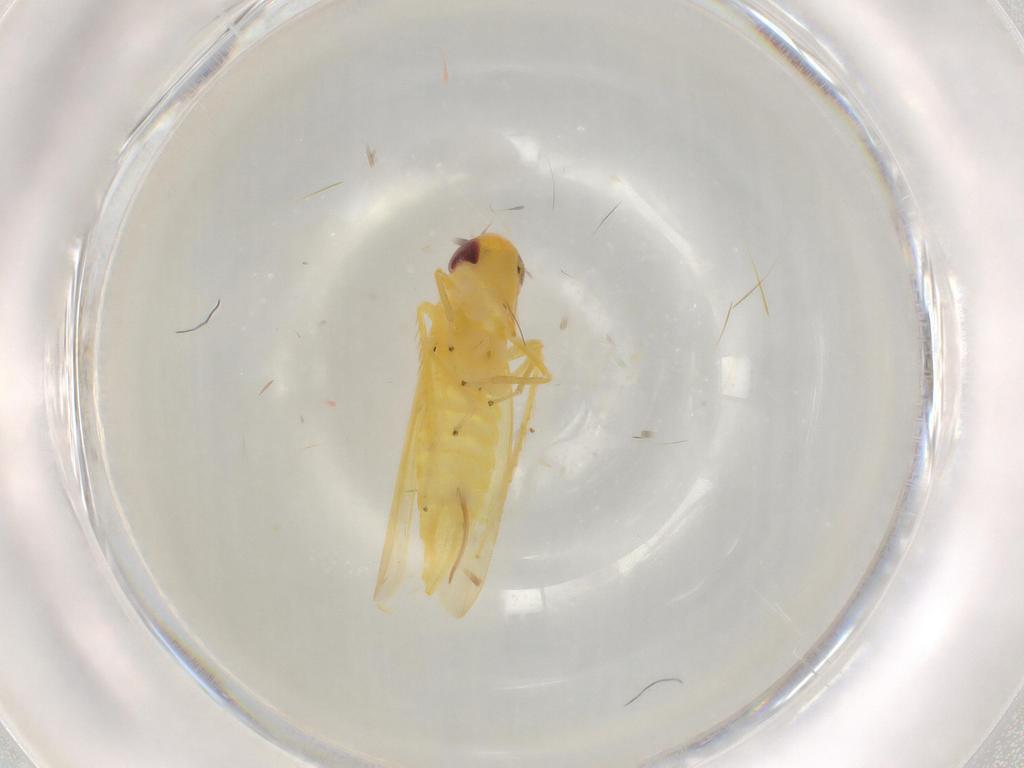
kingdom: Animalia
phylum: Arthropoda
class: Insecta
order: Hemiptera
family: Cicadellidae
